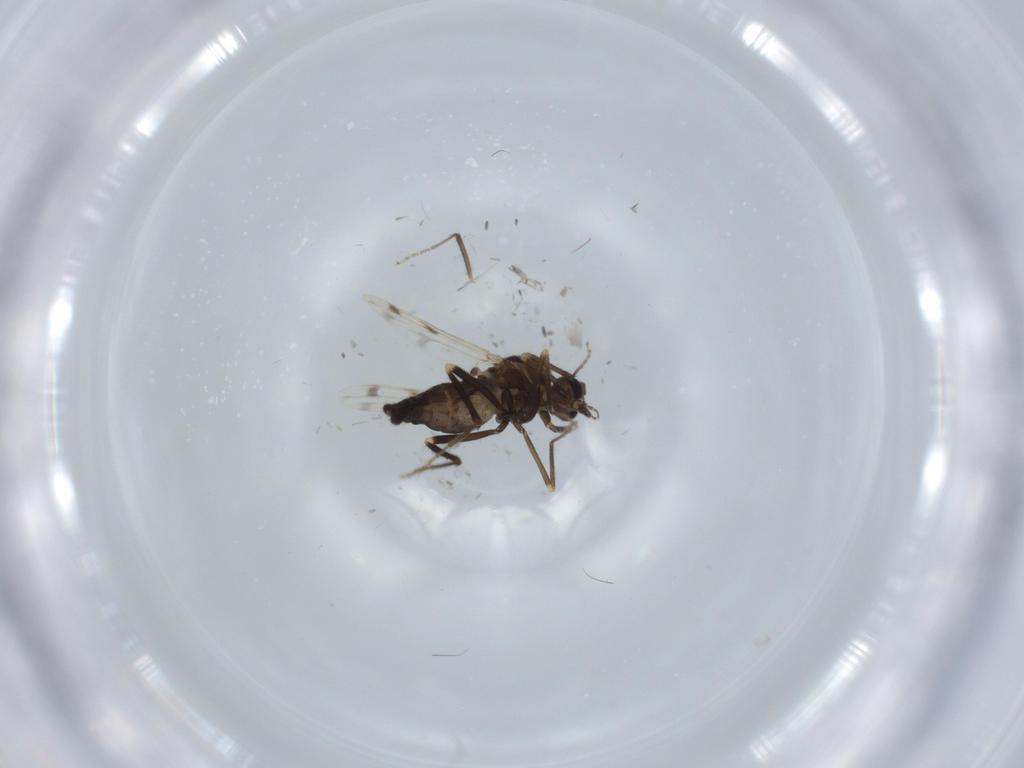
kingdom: Animalia
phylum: Arthropoda
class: Insecta
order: Diptera
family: Ceratopogonidae
